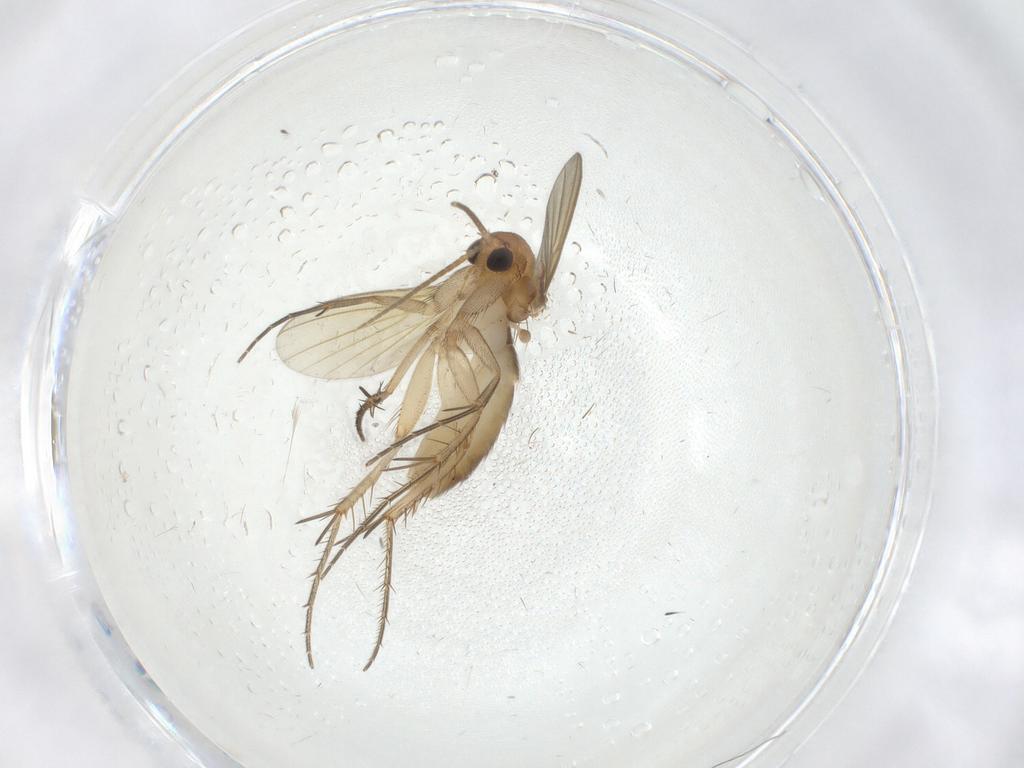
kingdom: Animalia
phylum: Arthropoda
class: Insecta
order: Diptera
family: Mycetophilidae
